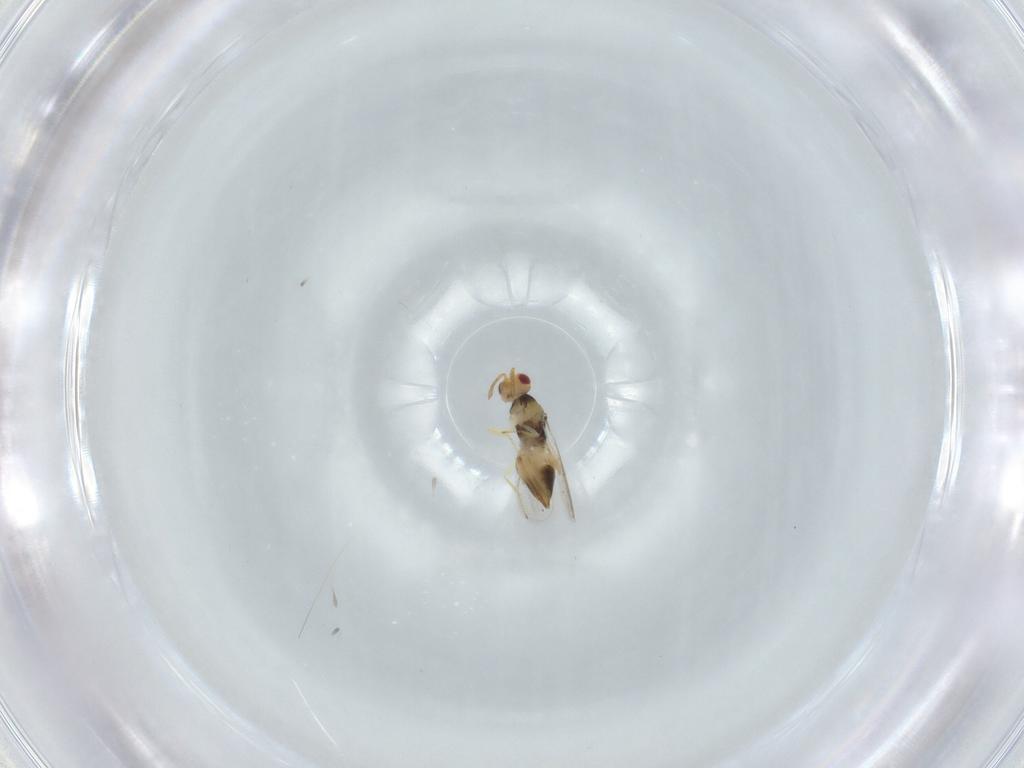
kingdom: Animalia
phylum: Arthropoda
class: Insecta
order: Hymenoptera
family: Eulophidae
